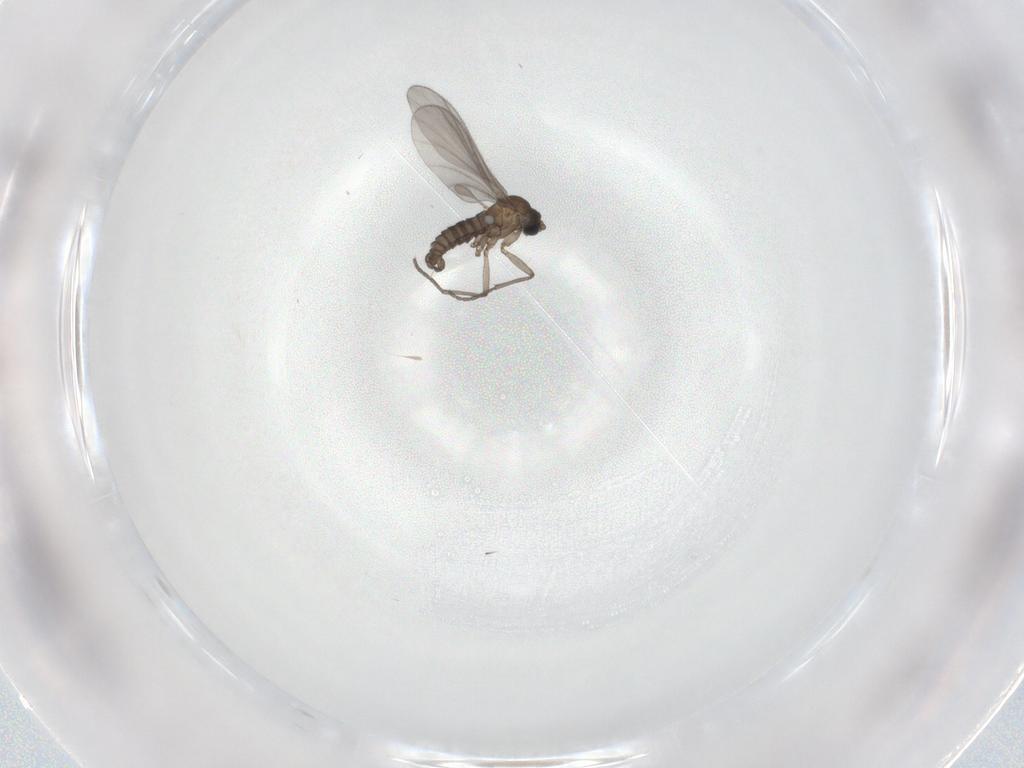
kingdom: Animalia
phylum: Arthropoda
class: Insecta
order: Diptera
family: Sciaridae
